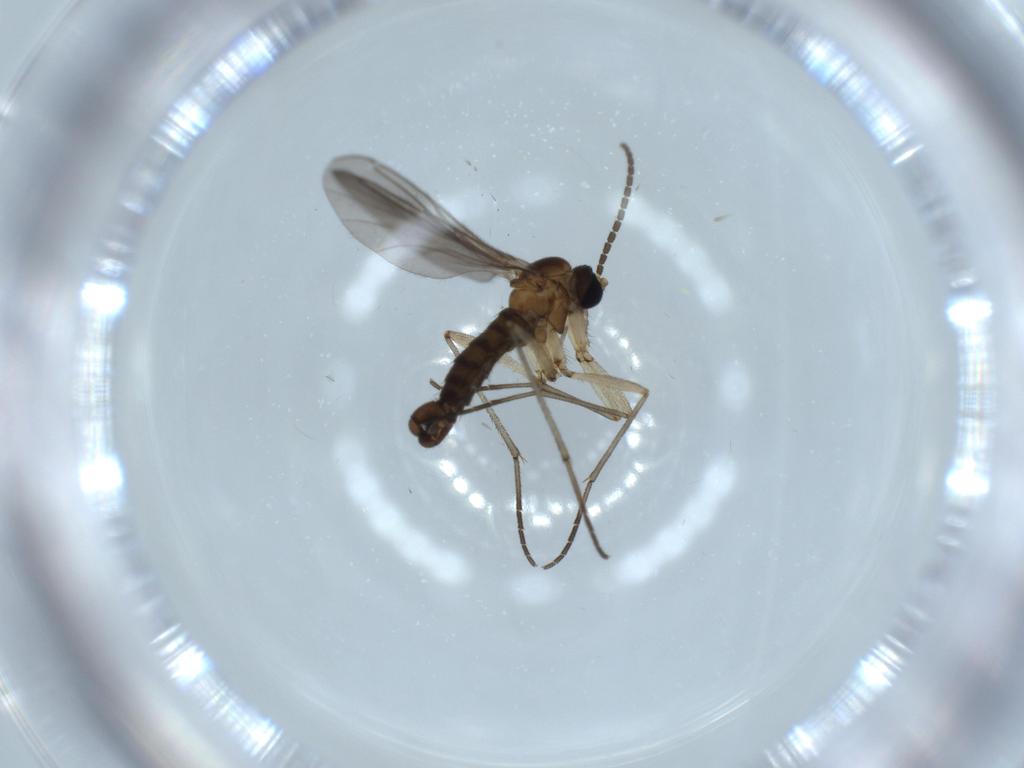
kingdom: Animalia
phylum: Arthropoda
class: Insecta
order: Diptera
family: Sciaridae
